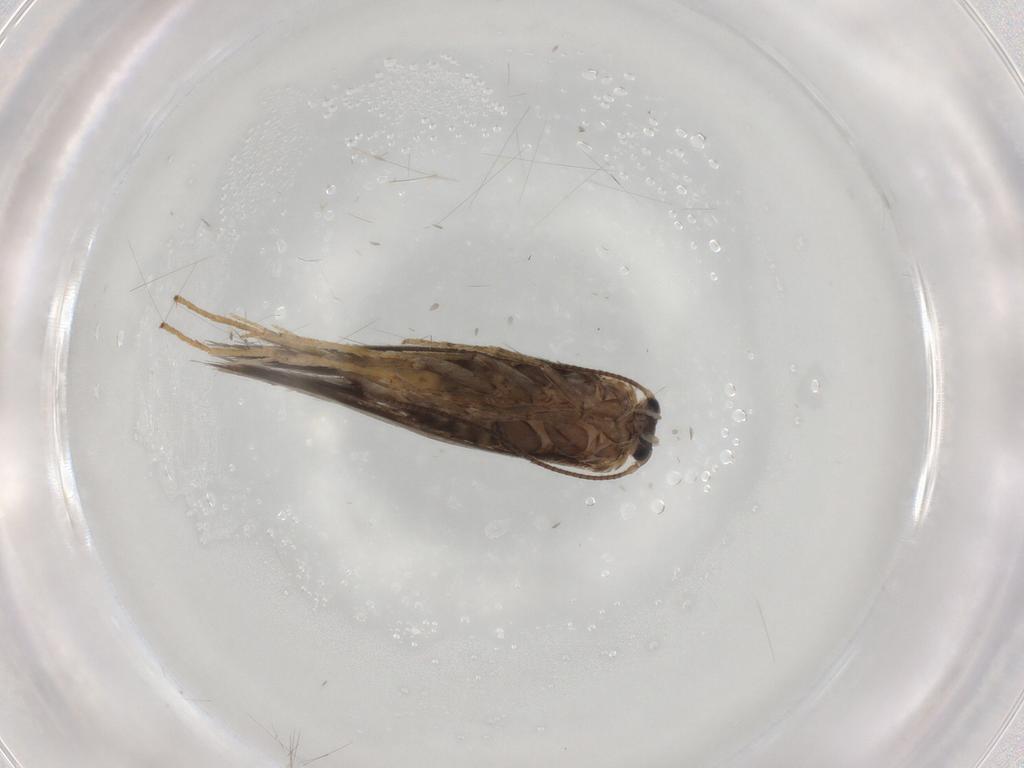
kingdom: Animalia
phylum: Arthropoda
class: Insecta
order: Lepidoptera
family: Nepticulidae
